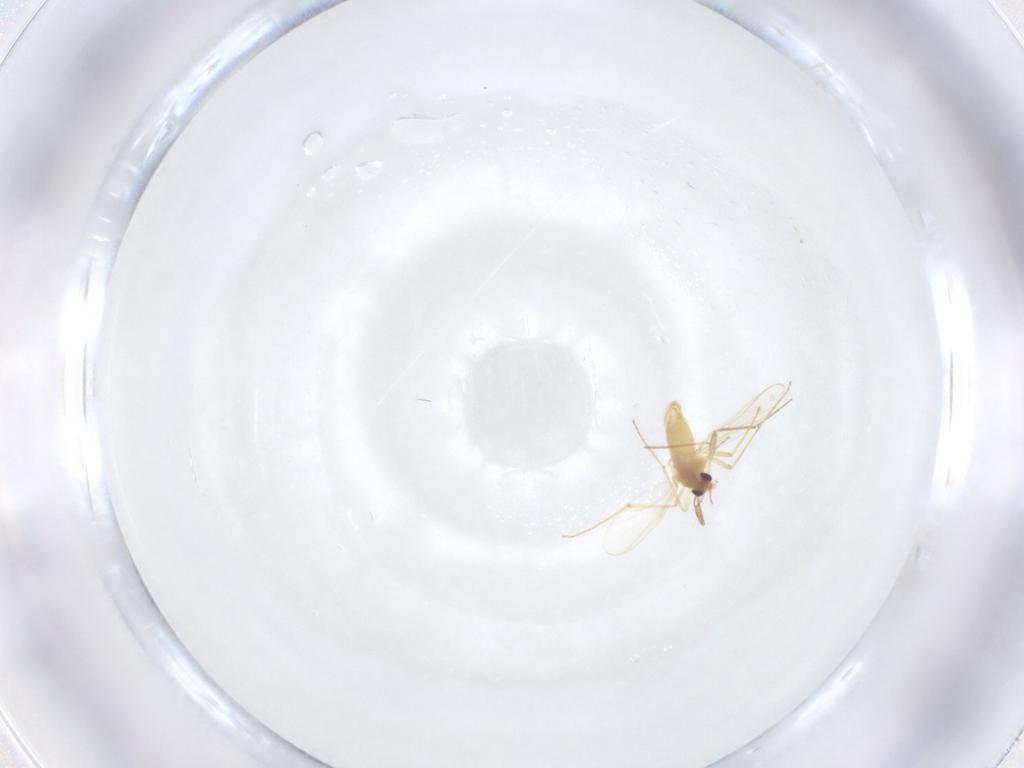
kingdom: Animalia
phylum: Arthropoda
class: Insecta
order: Diptera
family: Chironomidae
